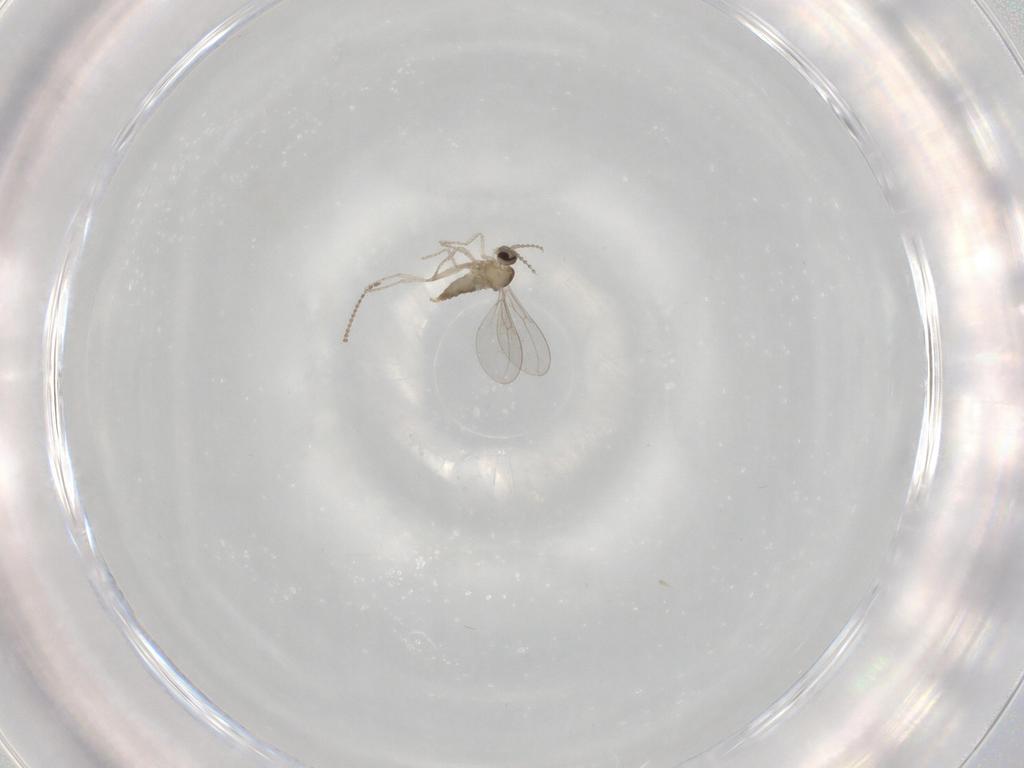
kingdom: Animalia
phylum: Arthropoda
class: Insecta
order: Diptera
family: Cecidomyiidae
